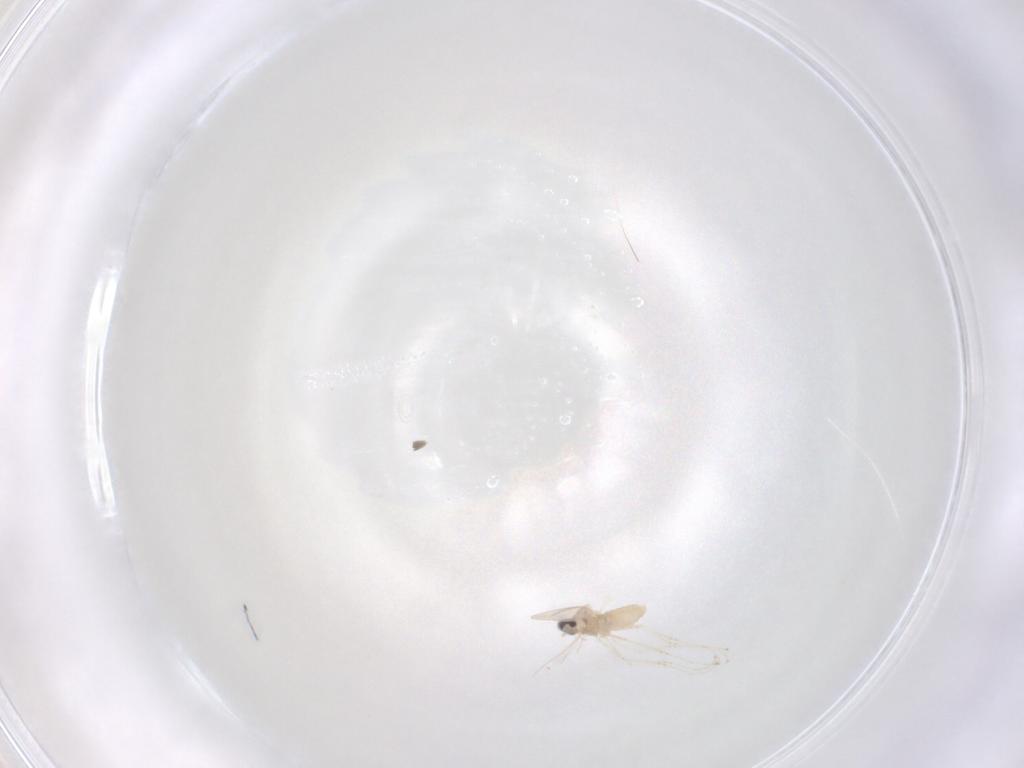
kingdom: Animalia
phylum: Arthropoda
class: Insecta
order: Diptera
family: Cecidomyiidae
